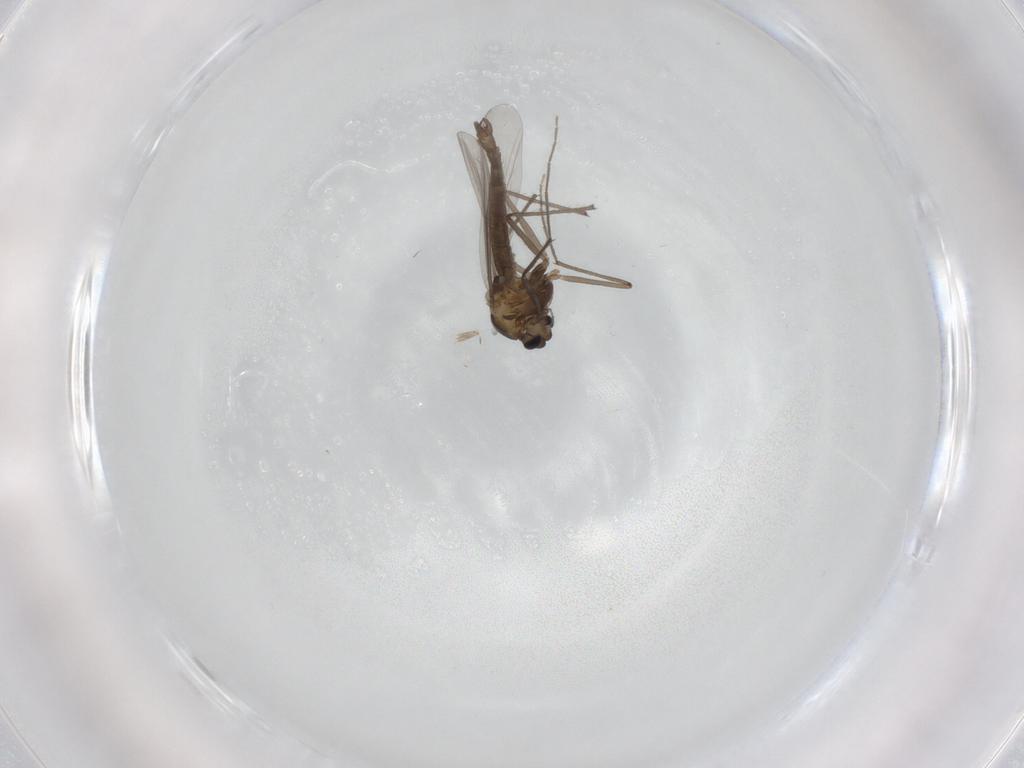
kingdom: Animalia
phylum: Arthropoda
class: Insecta
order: Diptera
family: Chironomidae
